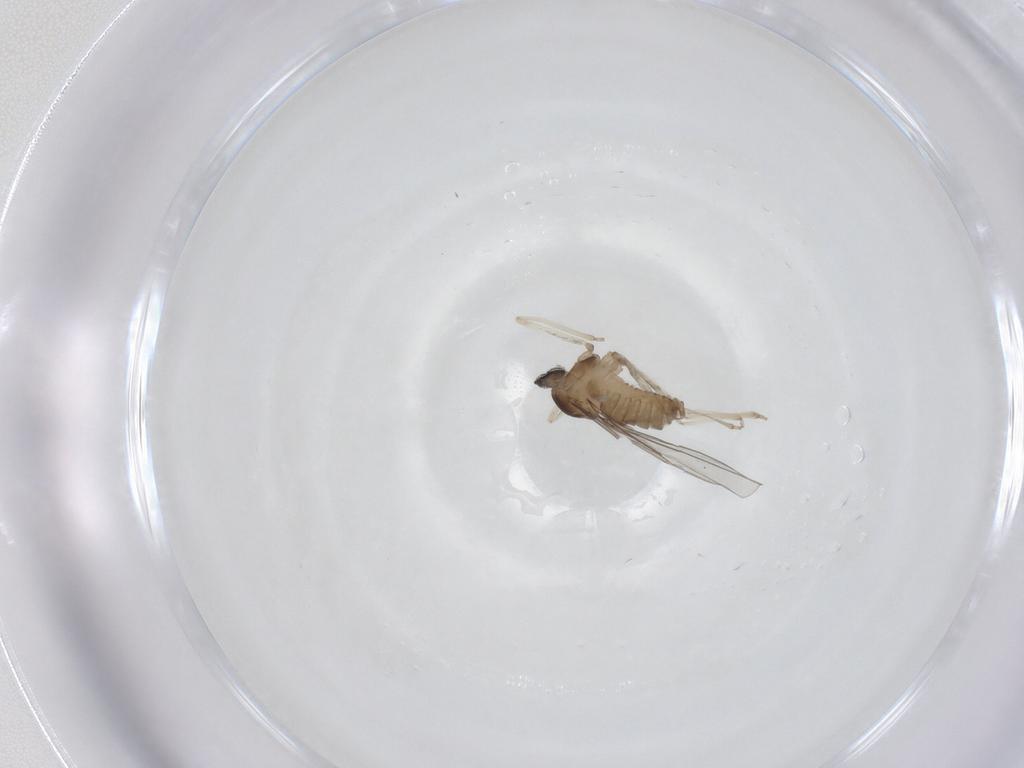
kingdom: Animalia
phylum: Arthropoda
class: Insecta
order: Diptera
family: Cecidomyiidae
